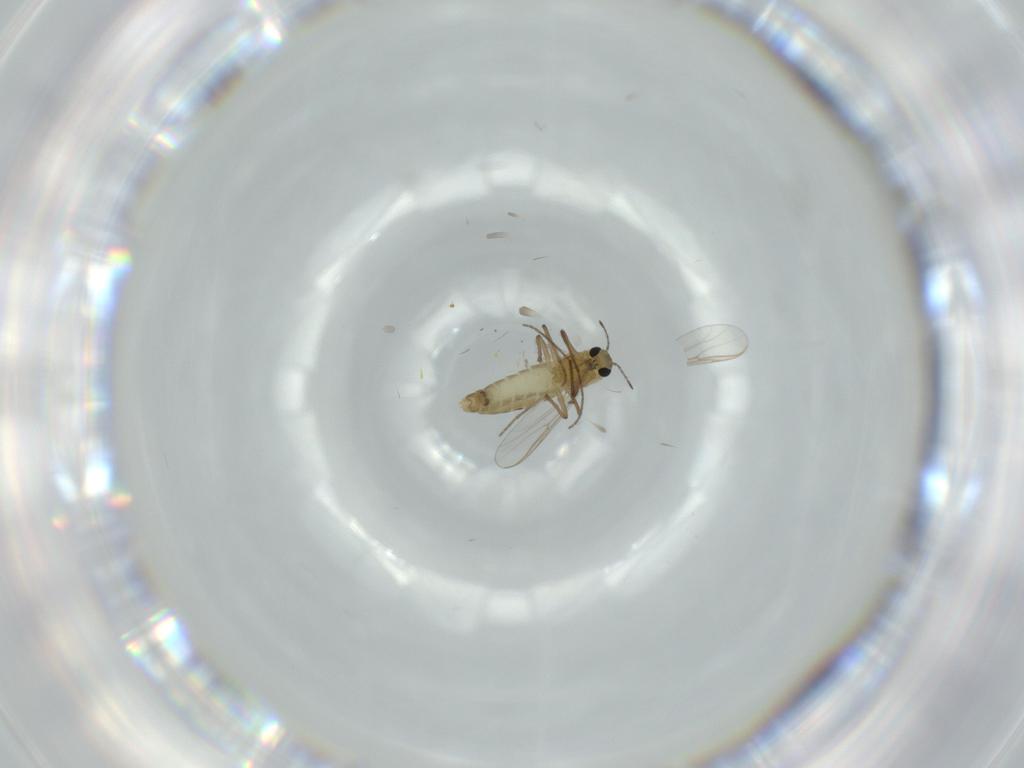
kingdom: Animalia
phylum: Arthropoda
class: Insecta
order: Diptera
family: Chironomidae
